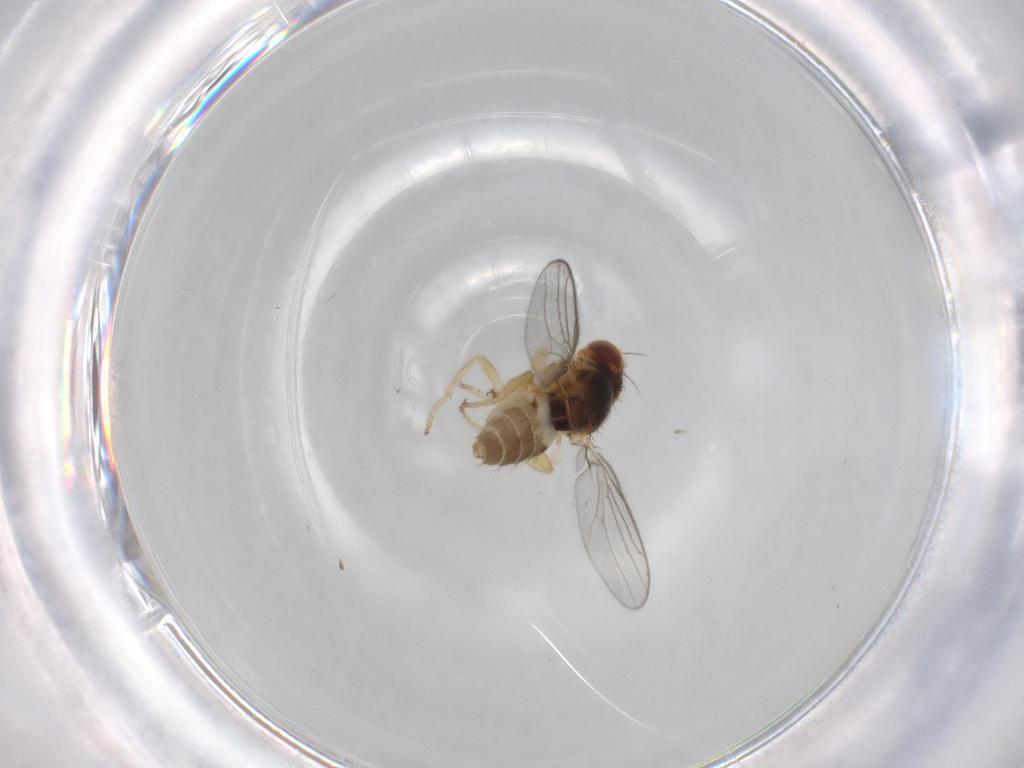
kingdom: Animalia
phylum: Arthropoda
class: Insecta
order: Diptera
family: Chloropidae
